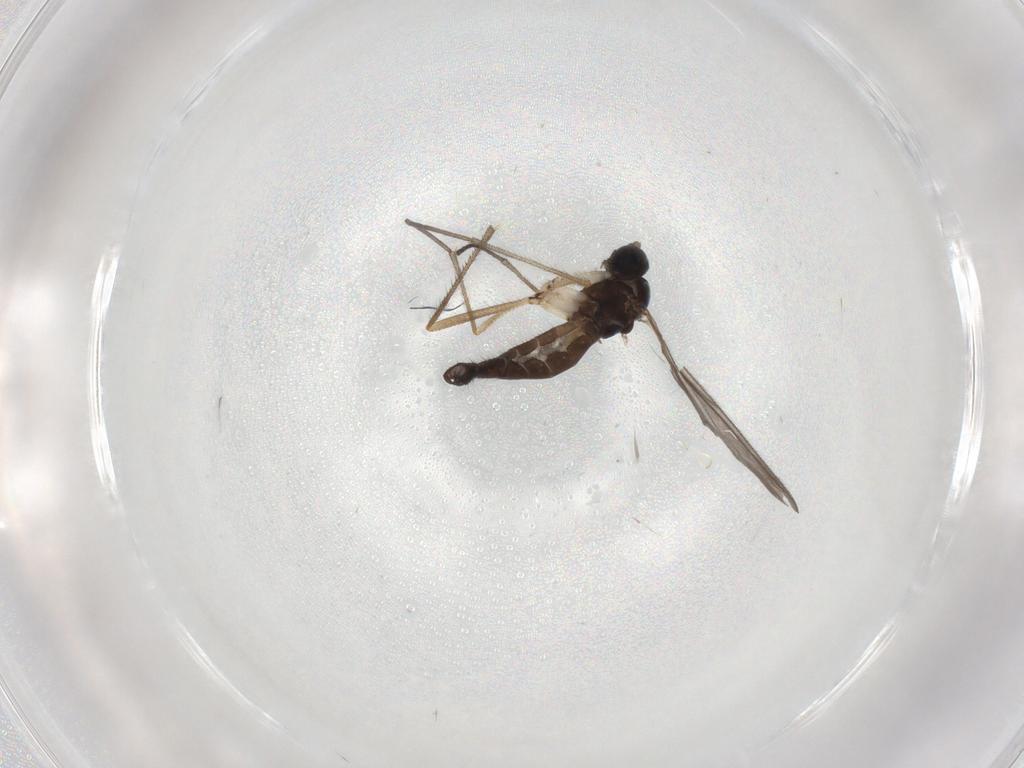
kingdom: Animalia
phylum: Arthropoda
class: Insecta
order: Diptera
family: Sciaridae
